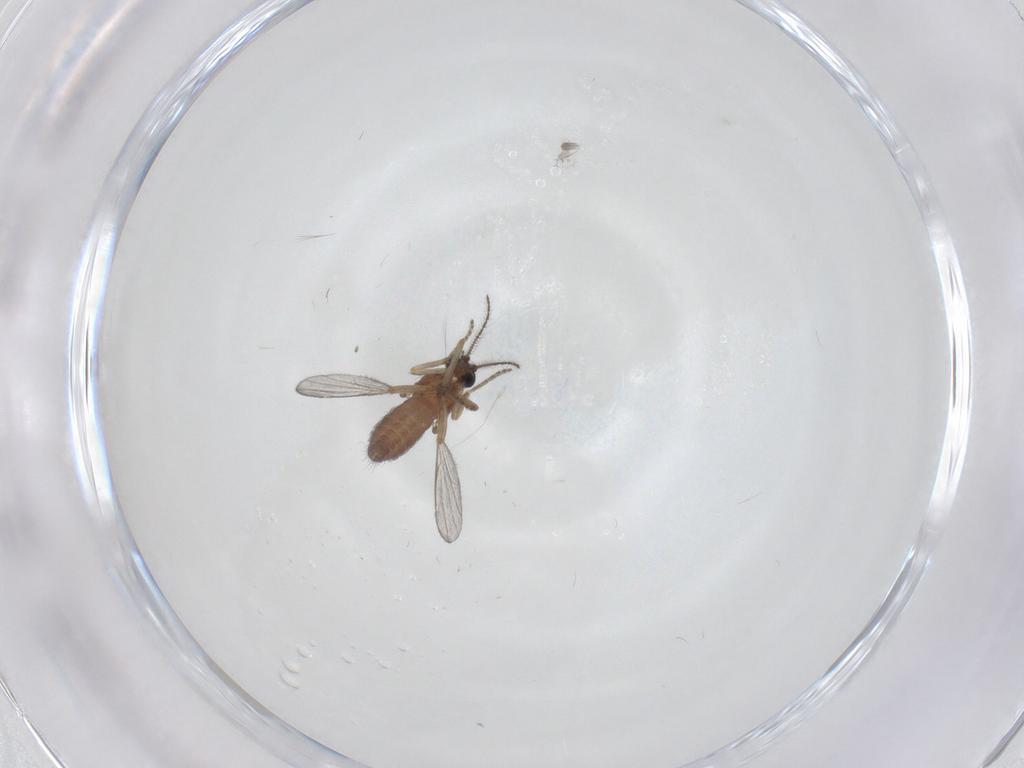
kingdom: Animalia
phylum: Arthropoda
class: Insecta
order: Diptera
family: Ceratopogonidae
